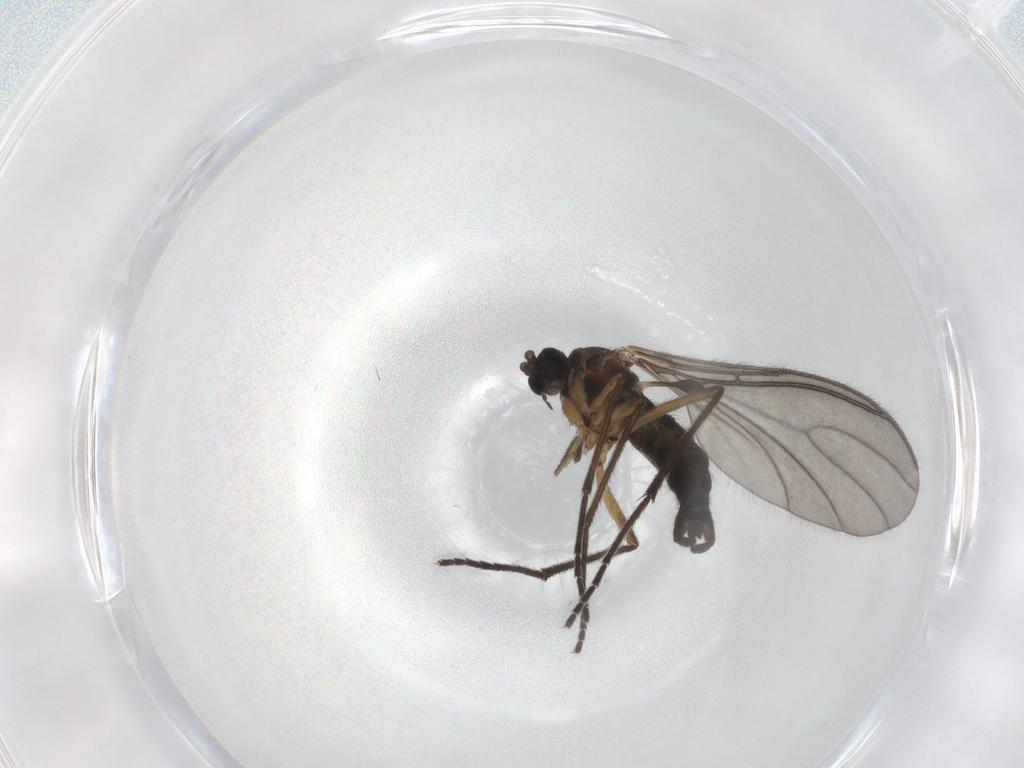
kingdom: Animalia
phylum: Arthropoda
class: Insecta
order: Diptera
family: Sciaridae
